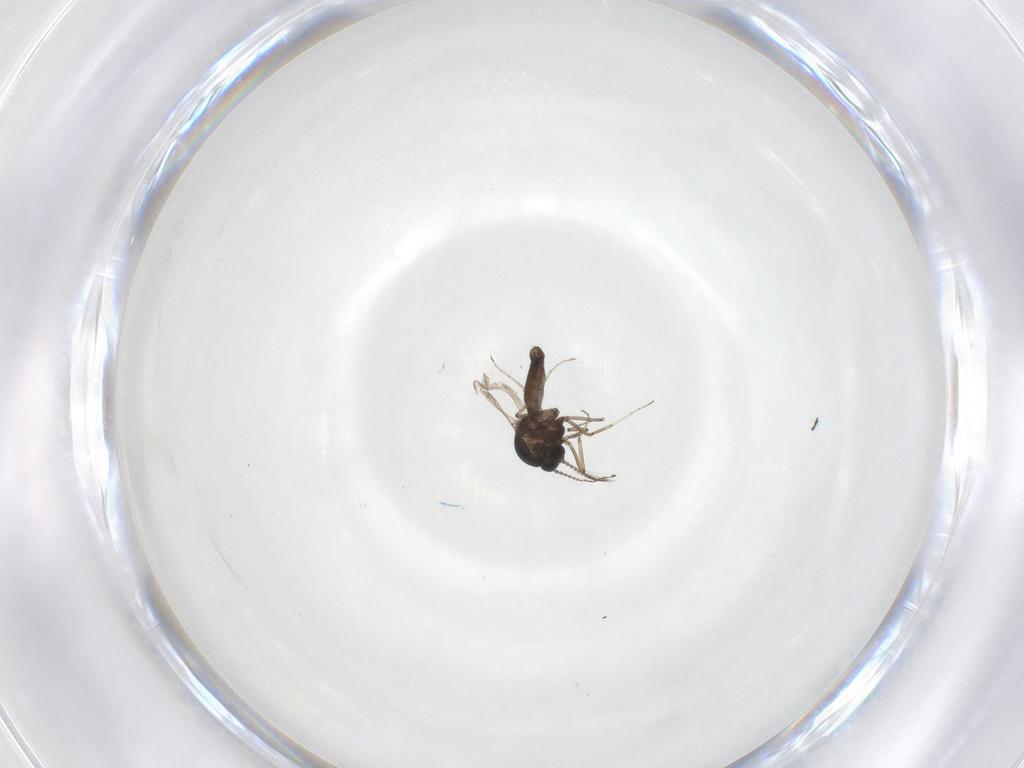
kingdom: Animalia
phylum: Arthropoda
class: Insecta
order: Diptera
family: Ceratopogonidae
